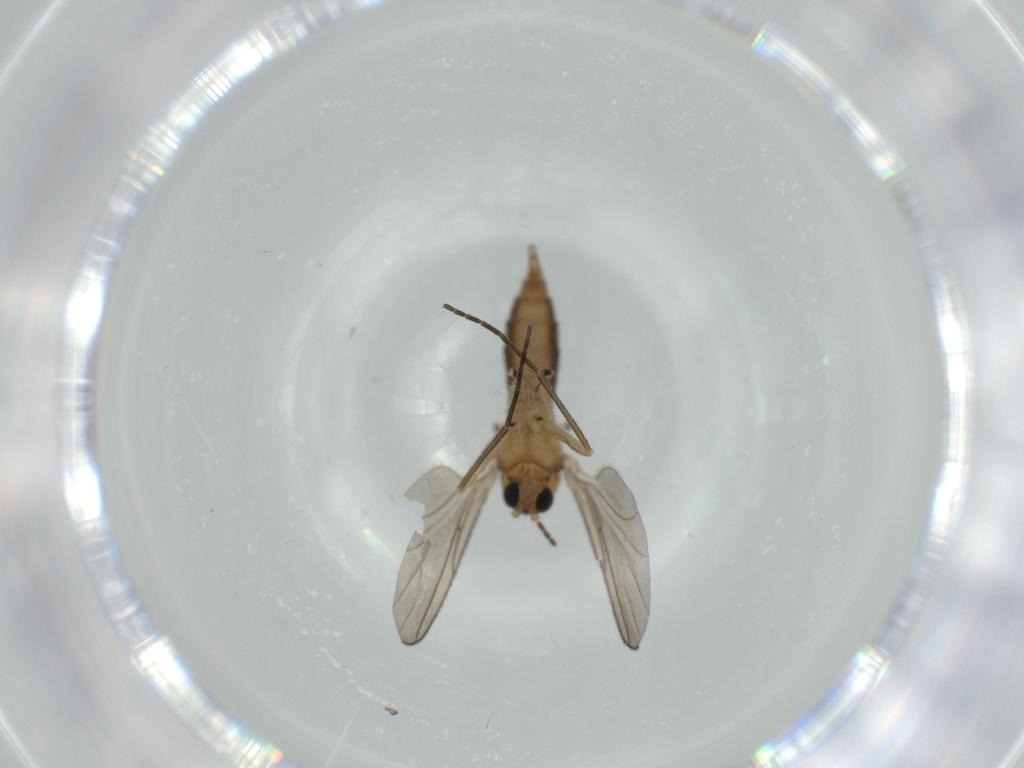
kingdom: Animalia
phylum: Arthropoda
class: Insecta
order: Diptera
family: Sciaridae
